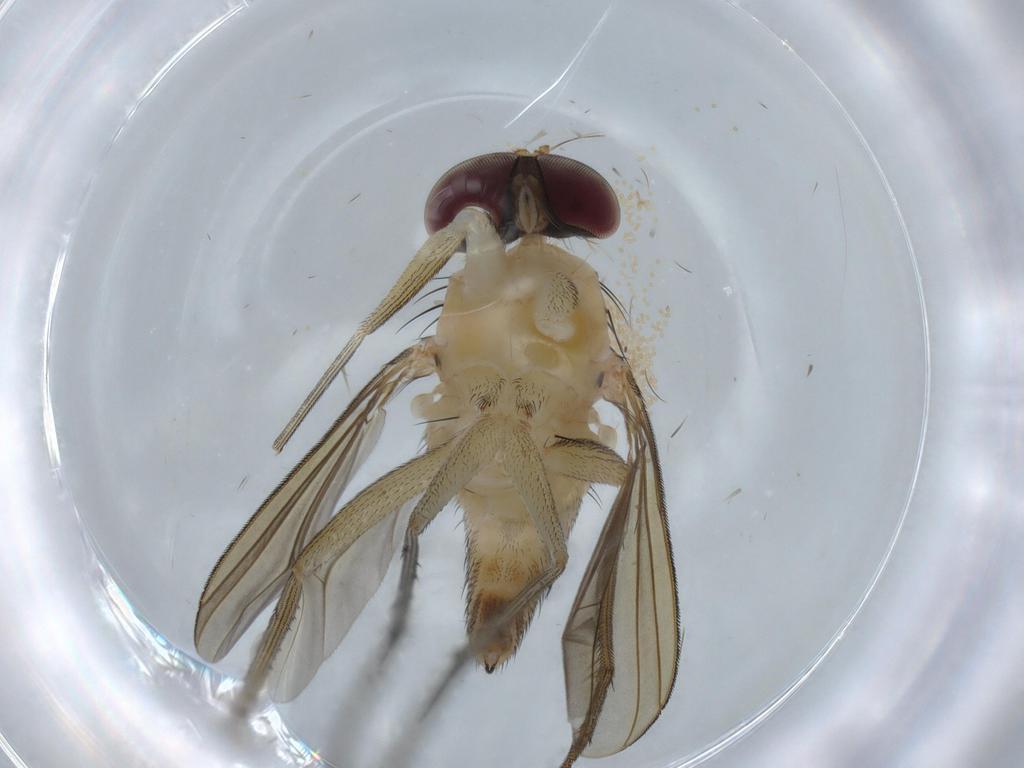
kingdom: Animalia
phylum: Arthropoda
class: Insecta
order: Diptera
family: Dolichopodidae
